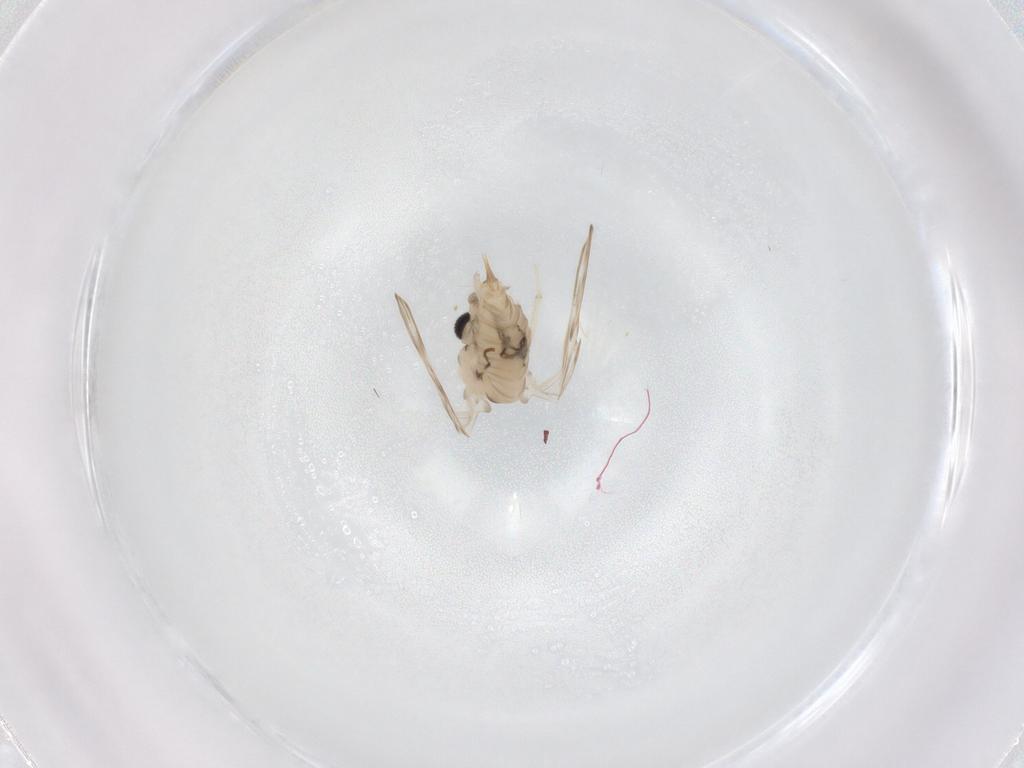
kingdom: Animalia
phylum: Arthropoda
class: Insecta
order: Diptera
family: Psychodidae
